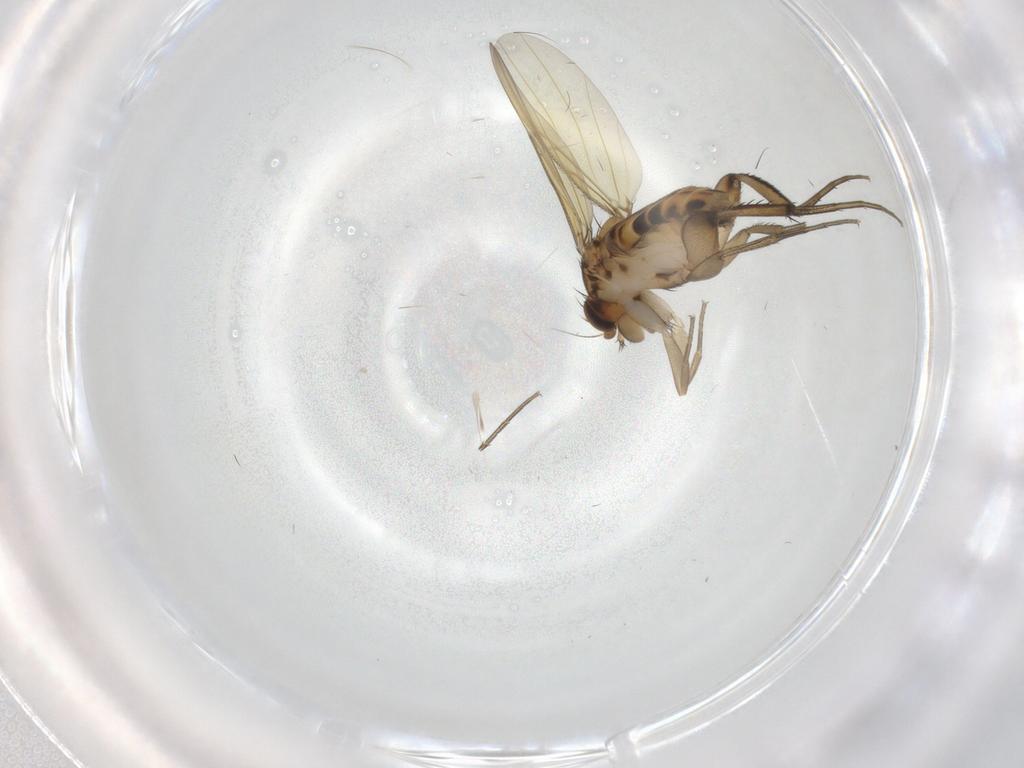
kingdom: Animalia
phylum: Arthropoda
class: Insecta
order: Diptera
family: Phoridae
